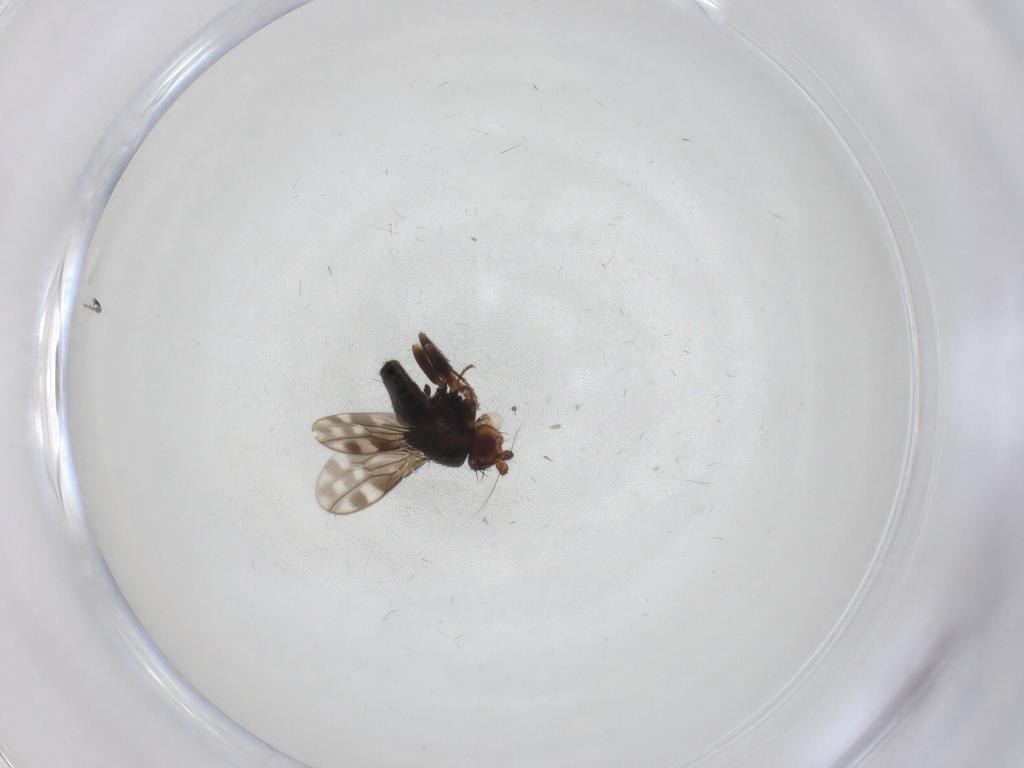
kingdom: Animalia
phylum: Arthropoda
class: Insecta
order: Diptera
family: Sphaeroceridae
